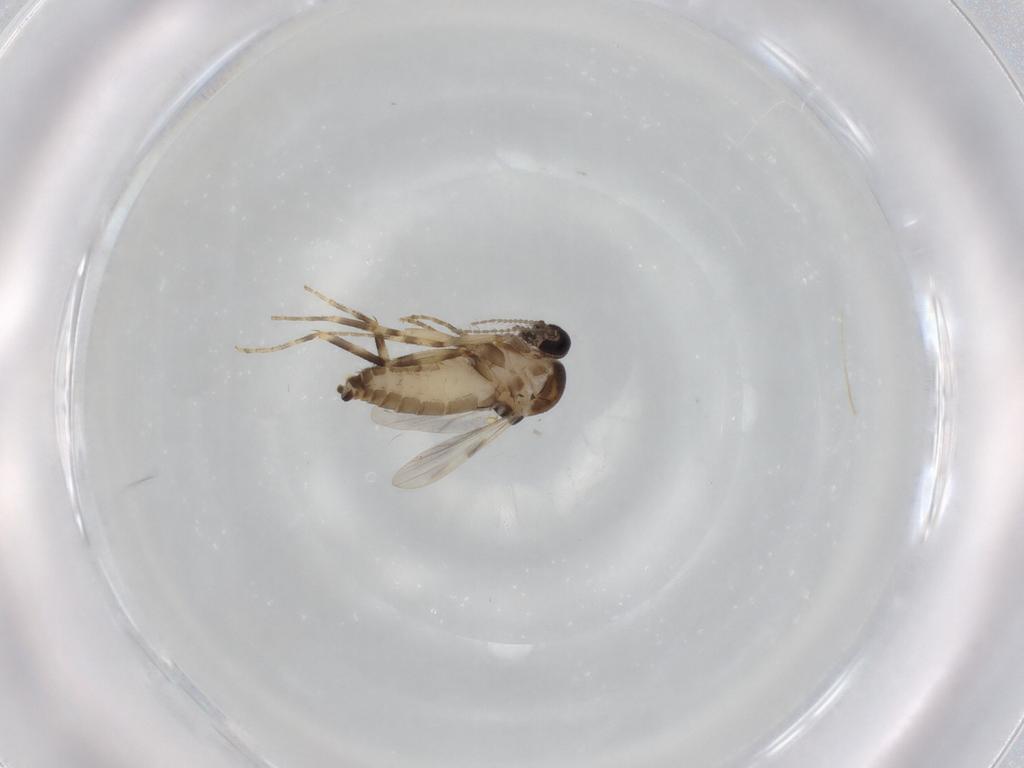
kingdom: Animalia
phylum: Arthropoda
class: Insecta
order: Diptera
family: Ceratopogonidae
